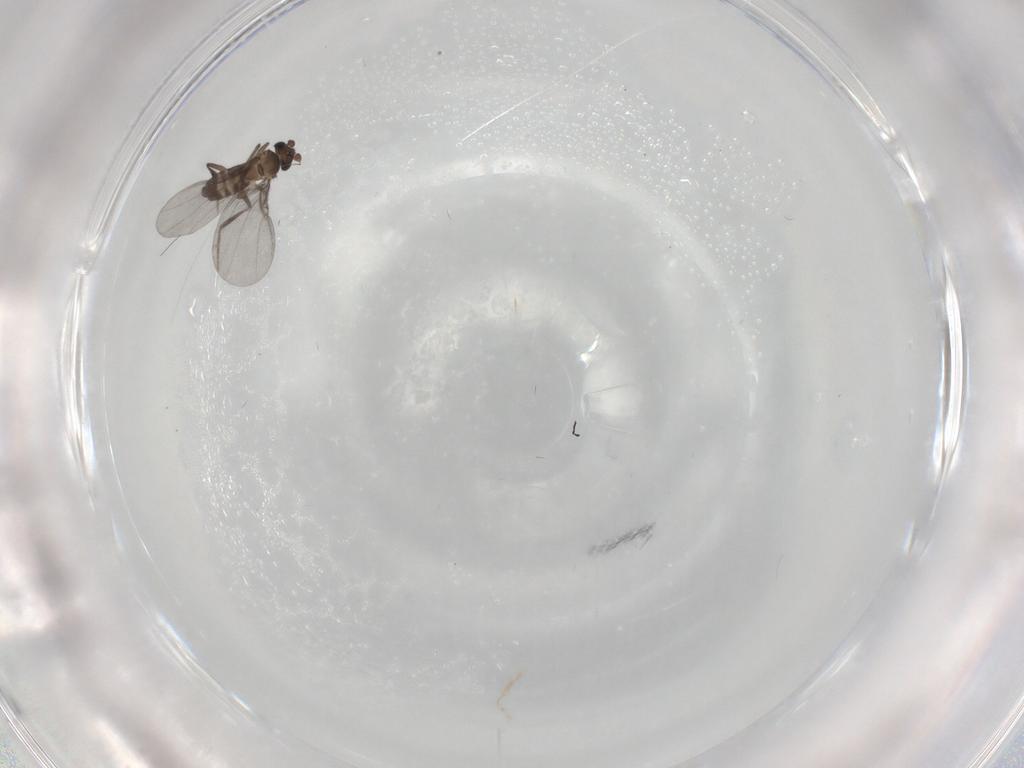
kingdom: Animalia
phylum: Arthropoda
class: Insecta
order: Diptera
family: Phoridae
